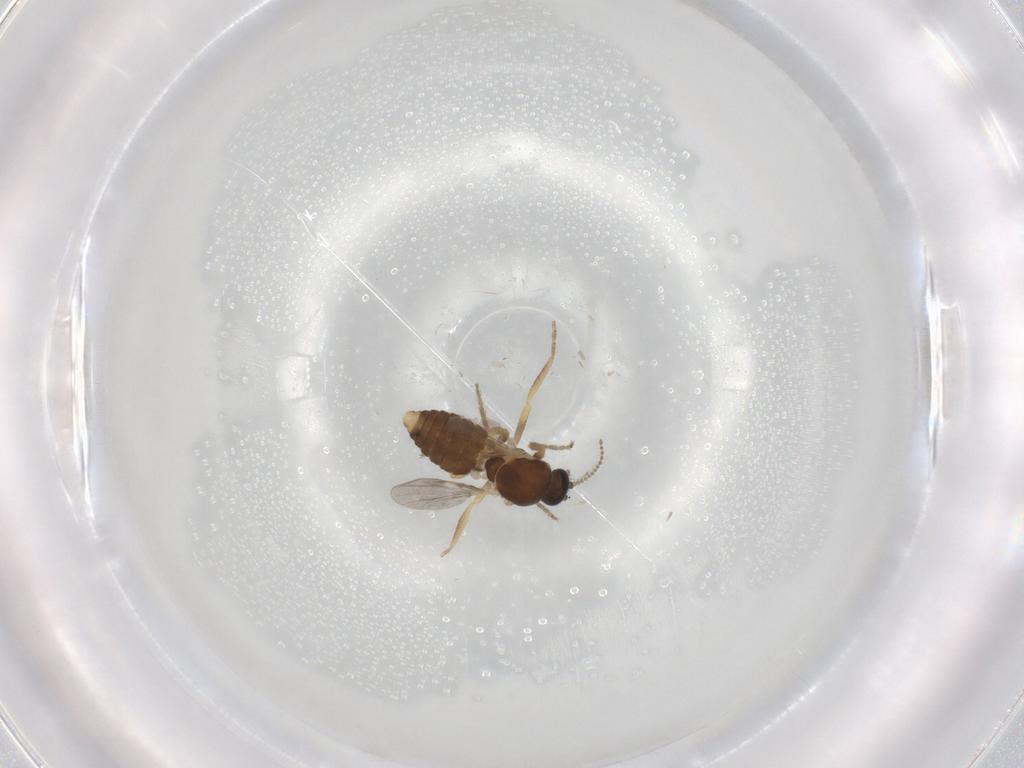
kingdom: Animalia
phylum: Arthropoda
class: Insecta
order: Diptera
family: Ceratopogonidae
